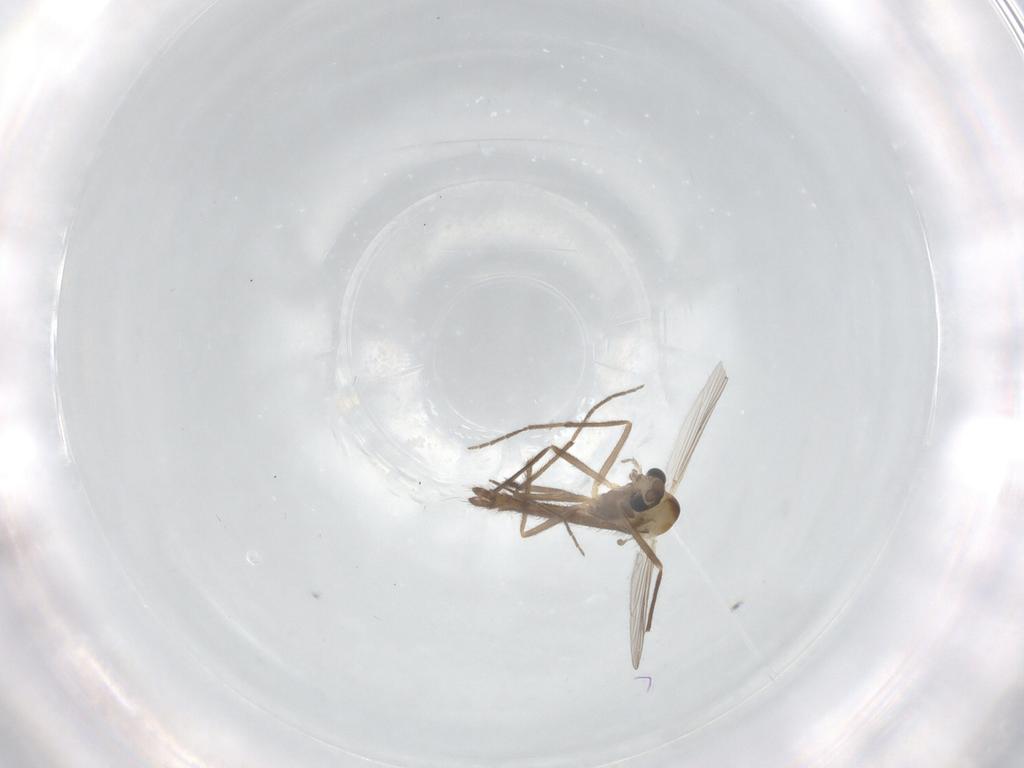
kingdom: Animalia
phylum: Arthropoda
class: Insecta
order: Diptera
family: Chironomidae
